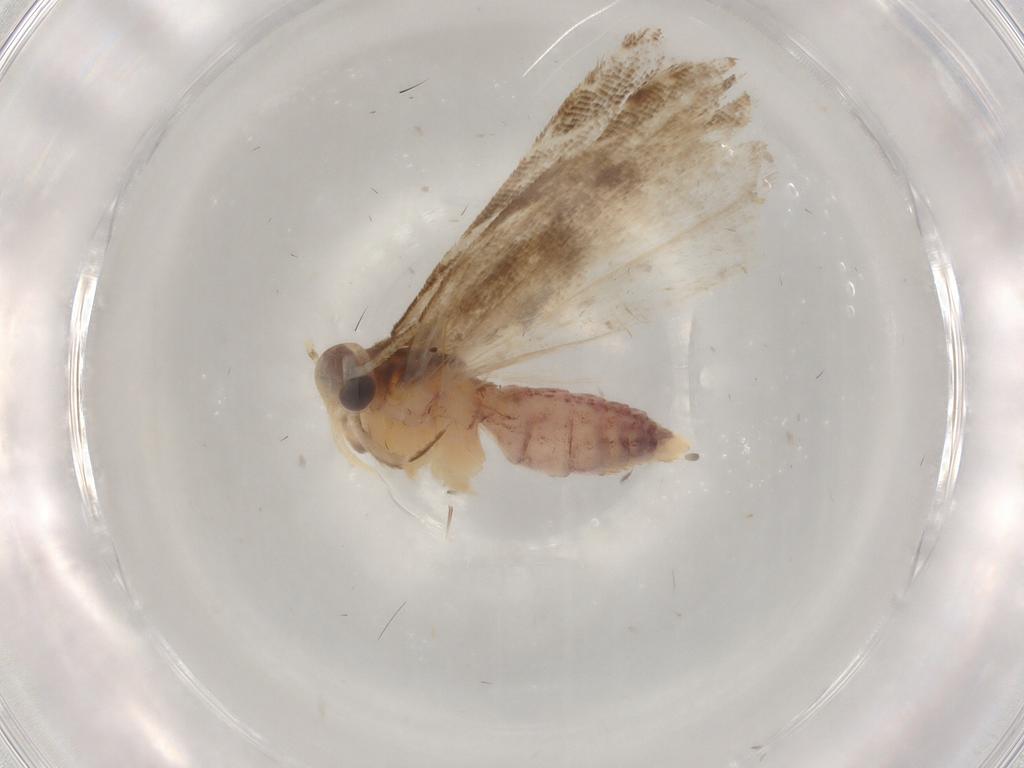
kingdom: Animalia
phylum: Arthropoda
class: Insecta
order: Lepidoptera
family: Gelechiidae
